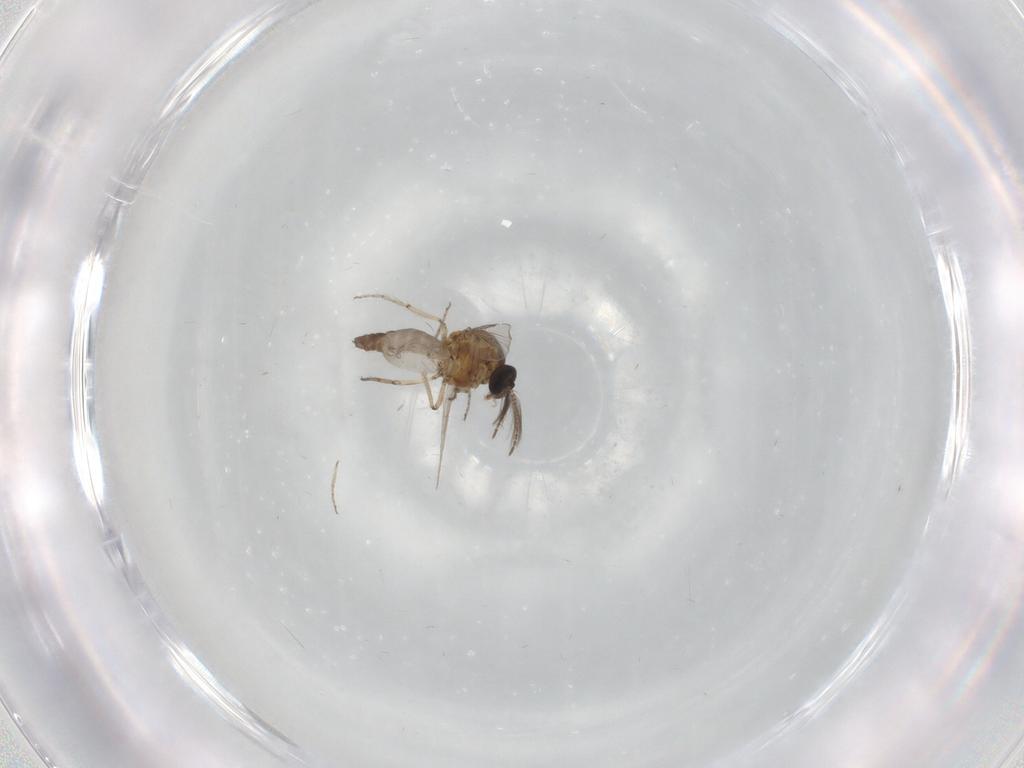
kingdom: Animalia
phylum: Arthropoda
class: Insecta
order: Diptera
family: Ceratopogonidae
